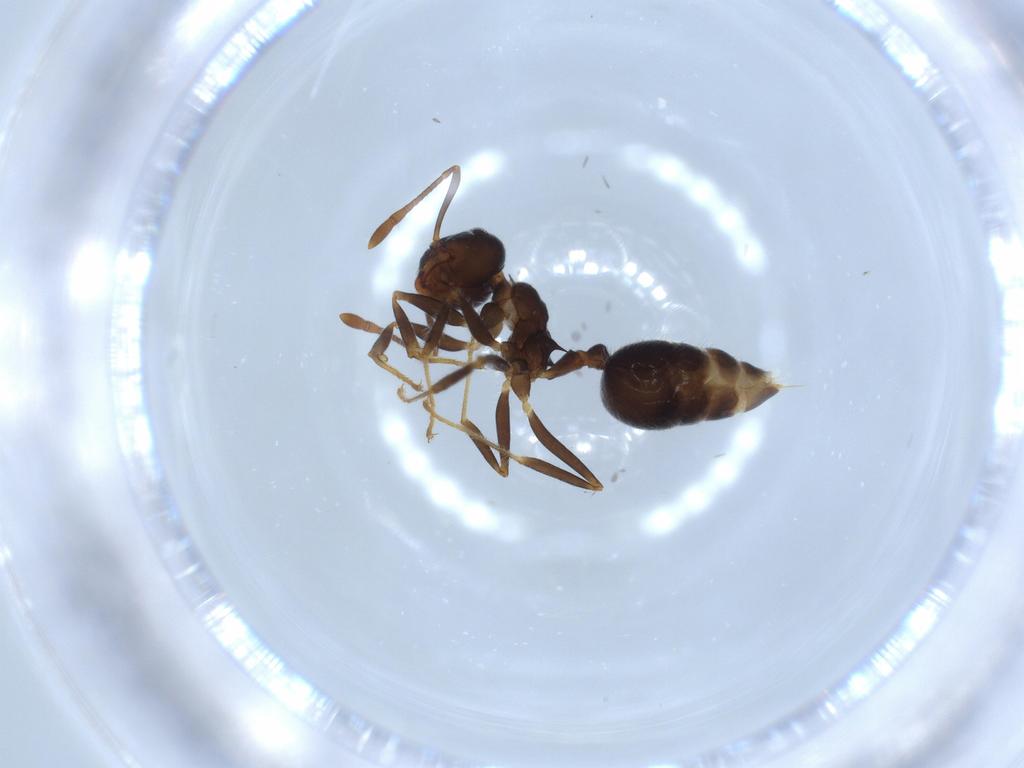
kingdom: Animalia
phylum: Arthropoda
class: Insecta
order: Hymenoptera
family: Formicidae
